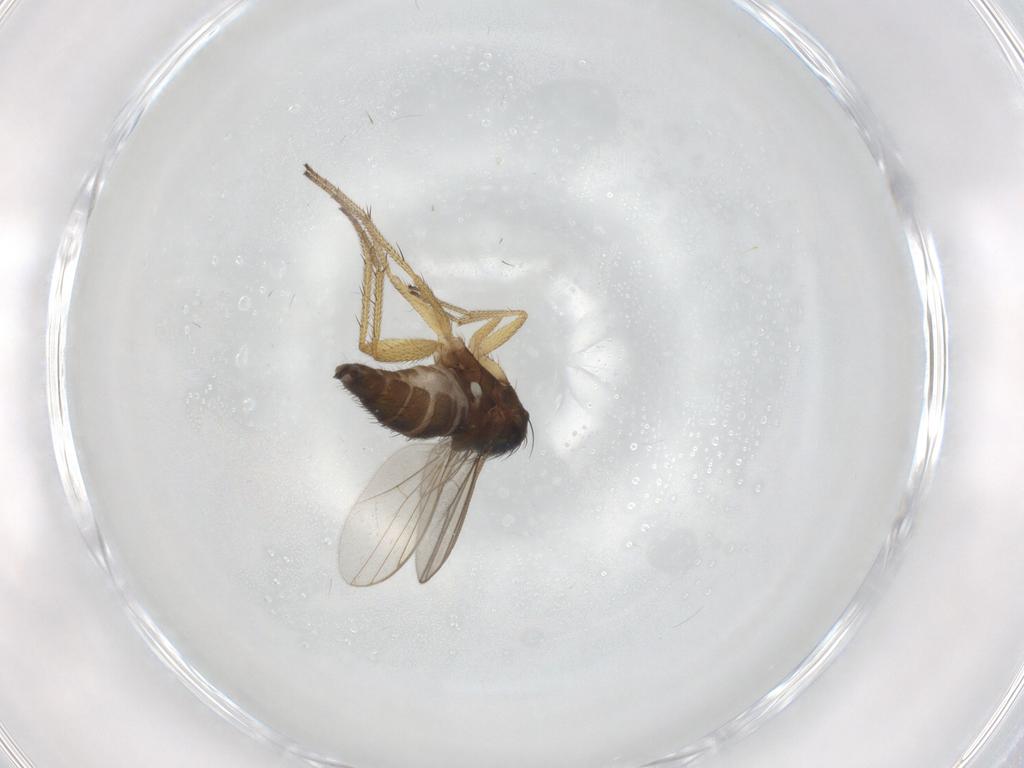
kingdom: Animalia
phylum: Arthropoda
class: Insecta
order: Diptera
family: Dolichopodidae
